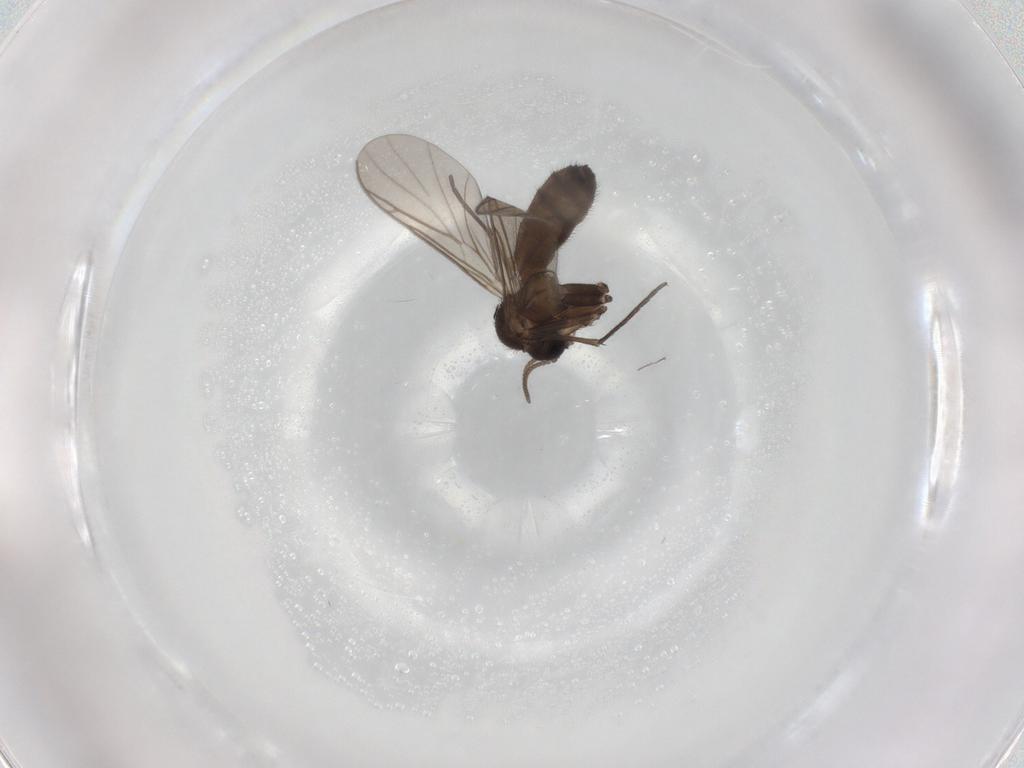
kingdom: Animalia
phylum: Arthropoda
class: Insecta
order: Diptera
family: Keroplatidae
